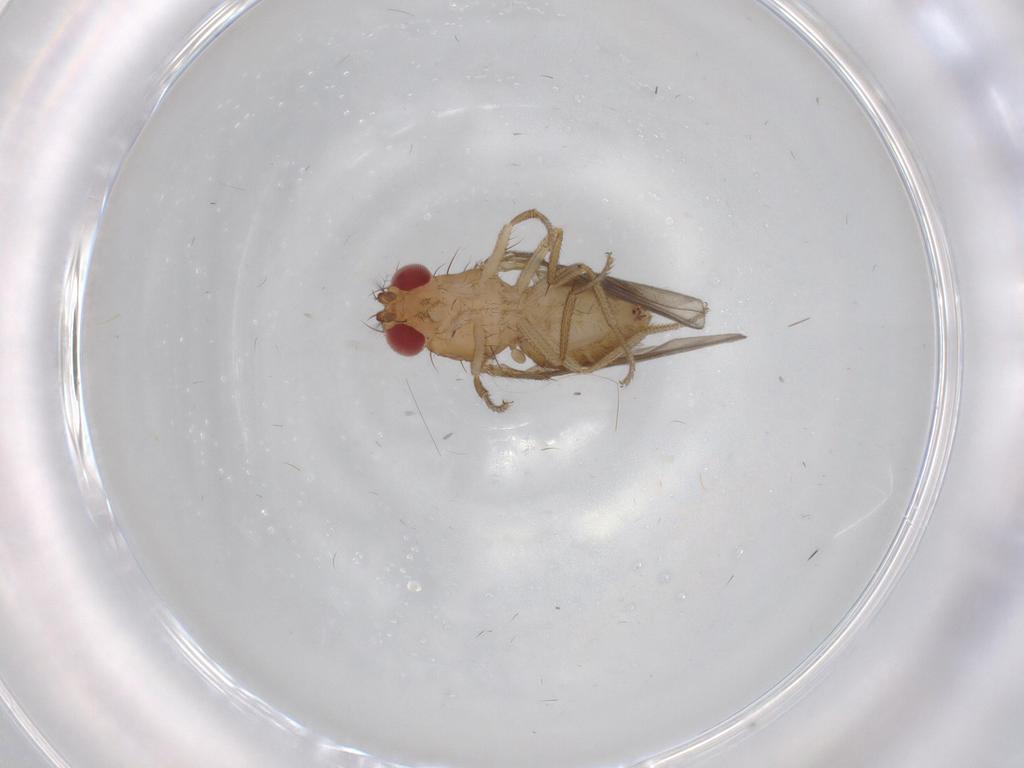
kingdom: Animalia
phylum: Arthropoda
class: Insecta
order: Diptera
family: Drosophilidae
